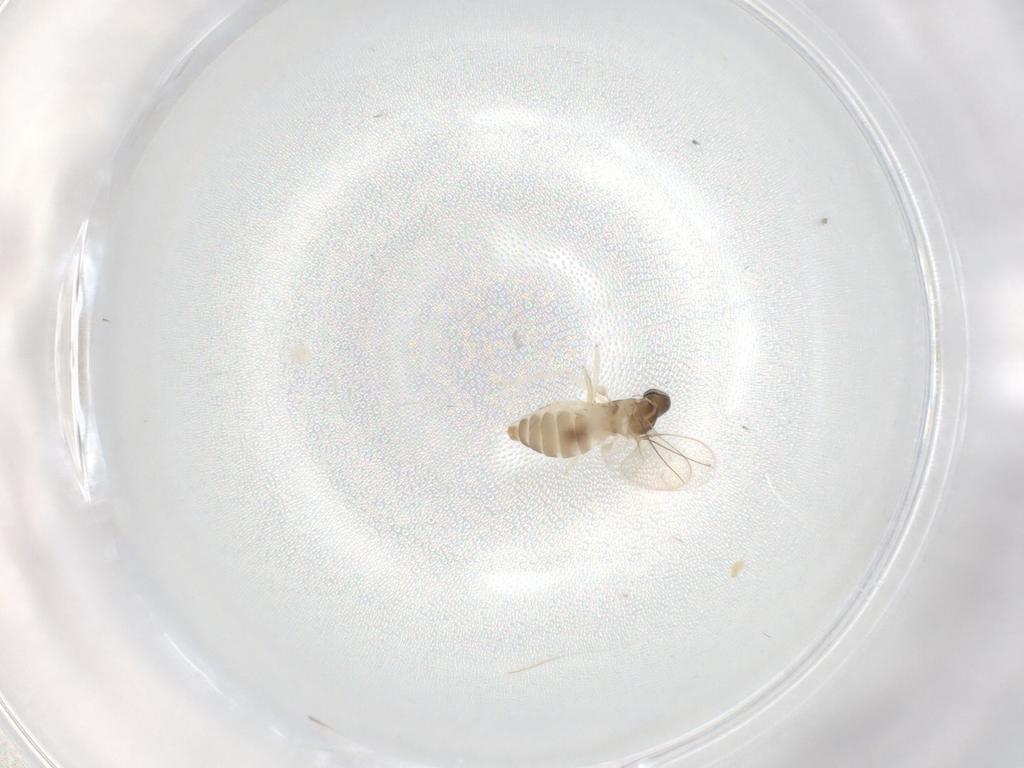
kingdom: Animalia
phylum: Arthropoda
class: Insecta
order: Diptera
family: Cecidomyiidae
